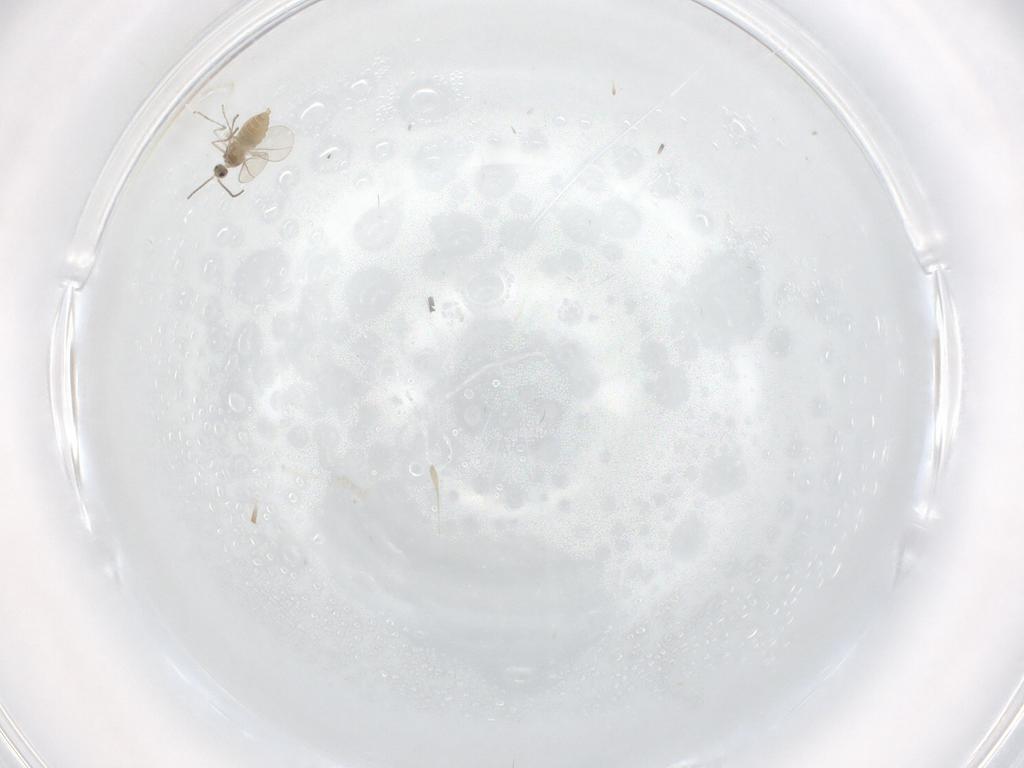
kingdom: Animalia
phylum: Arthropoda
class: Insecta
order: Diptera
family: Cecidomyiidae
